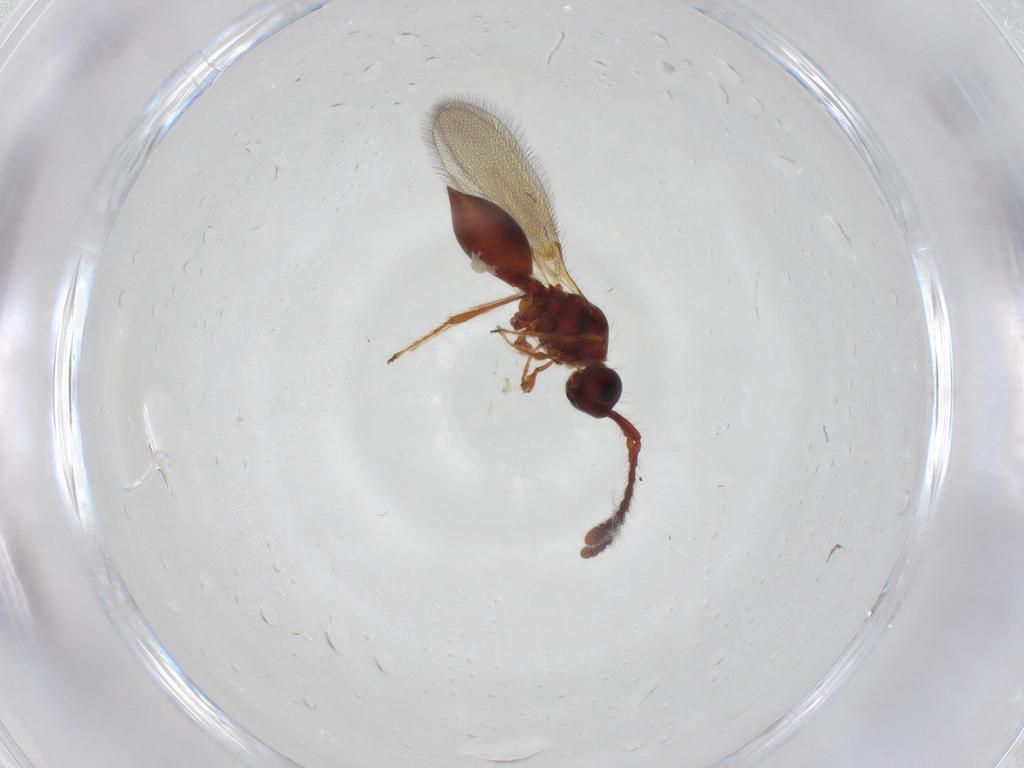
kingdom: Animalia
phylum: Arthropoda
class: Insecta
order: Hymenoptera
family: Diapriidae
